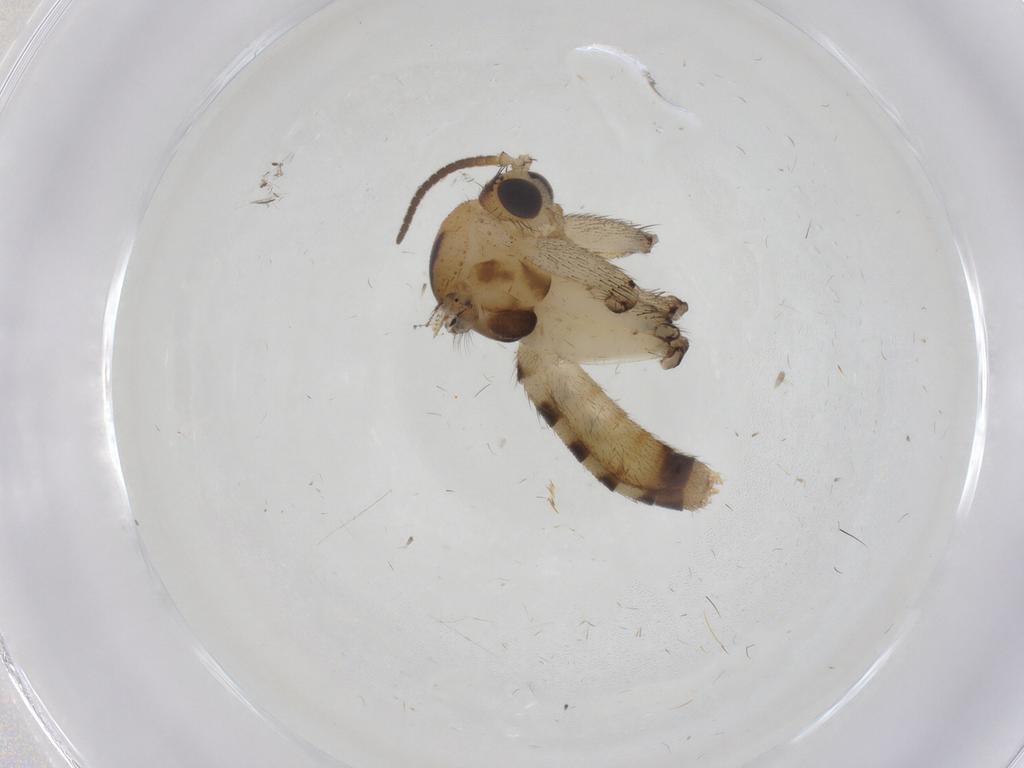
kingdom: Animalia
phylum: Arthropoda
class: Insecta
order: Diptera
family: Mycetophilidae
